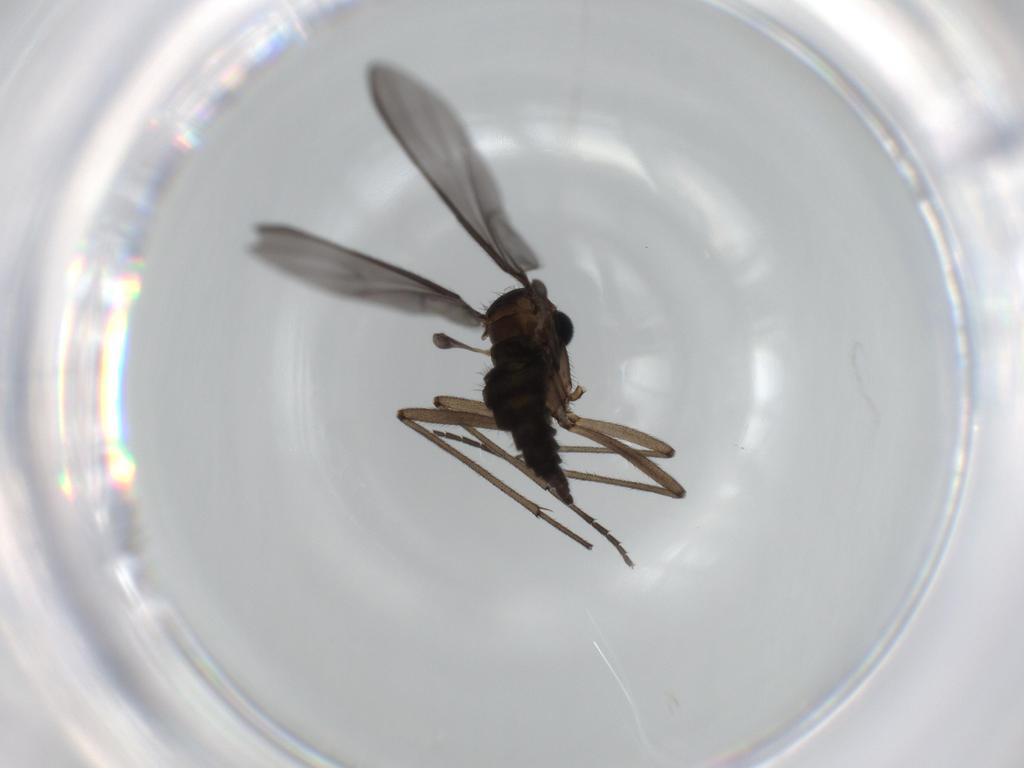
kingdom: Animalia
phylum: Arthropoda
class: Insecta
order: Diptera
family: Sciaridae
